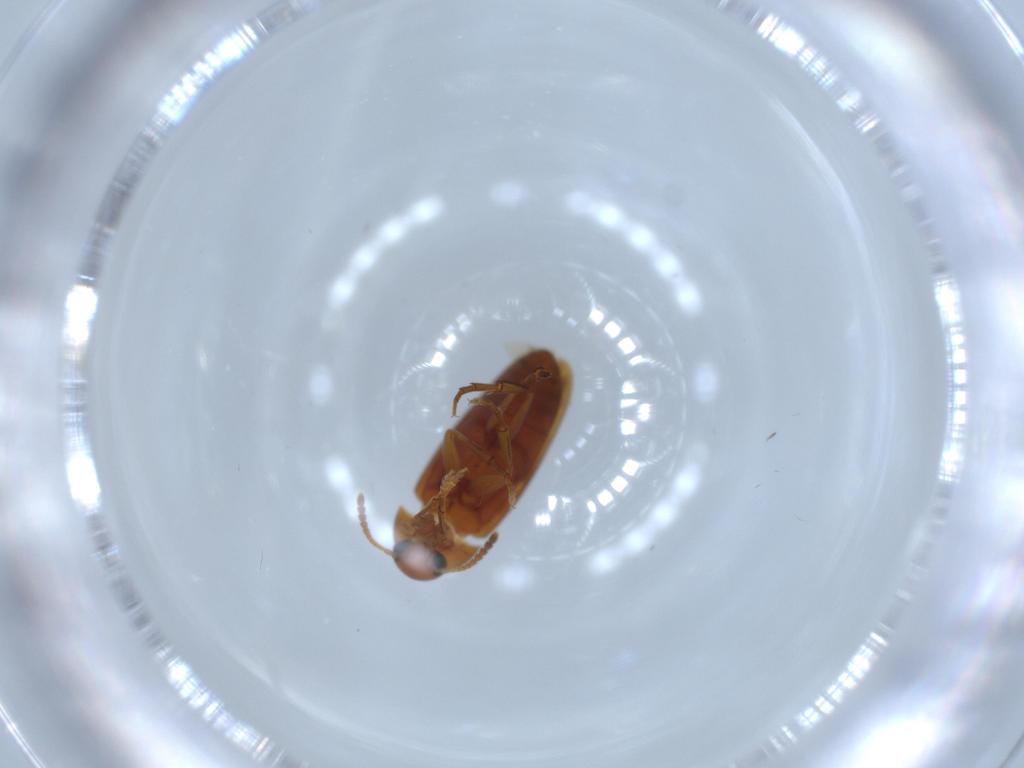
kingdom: Animalia
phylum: Arthropoda
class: Insecta
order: Coleoptera
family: Scraptiidae
